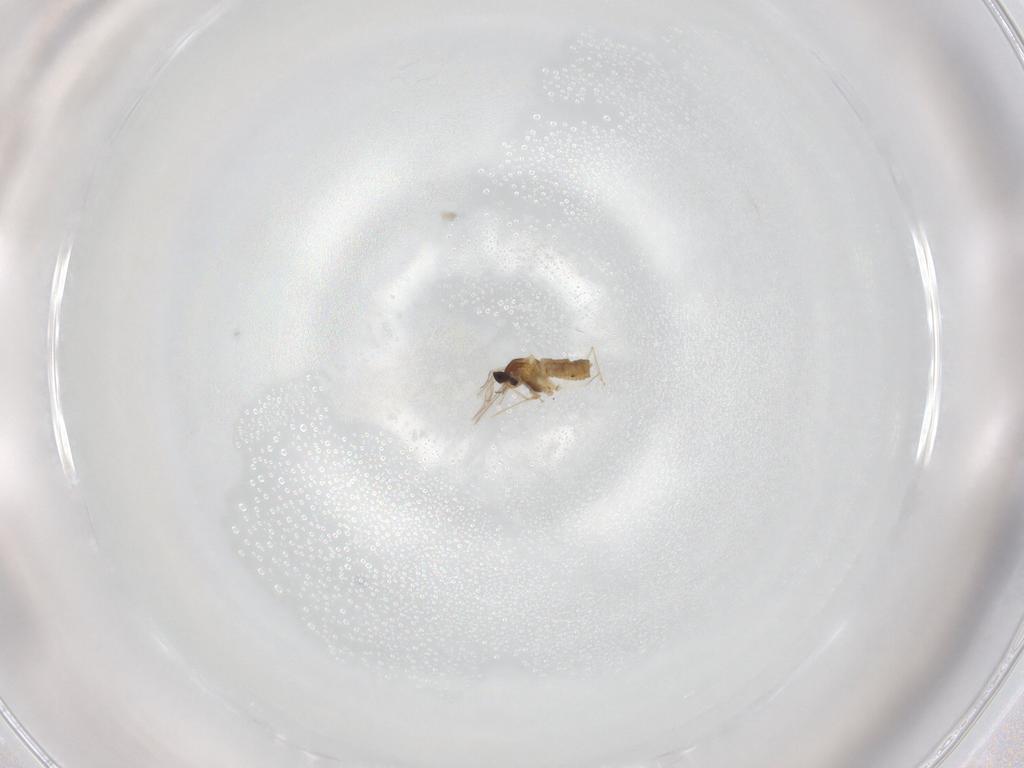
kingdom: Animalia
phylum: Arthropoda
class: Insecta
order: Diptera
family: Cecidomyiidae
